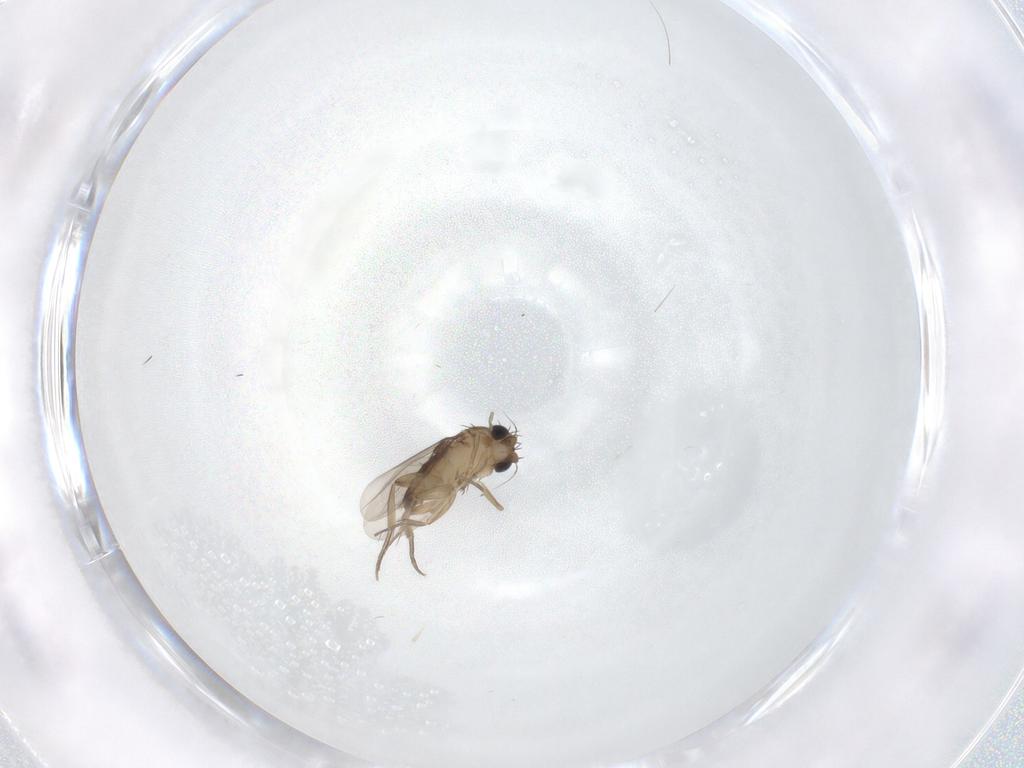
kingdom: Animalia
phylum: Arthropoda
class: Insecta
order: Diptera
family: Phoridae
